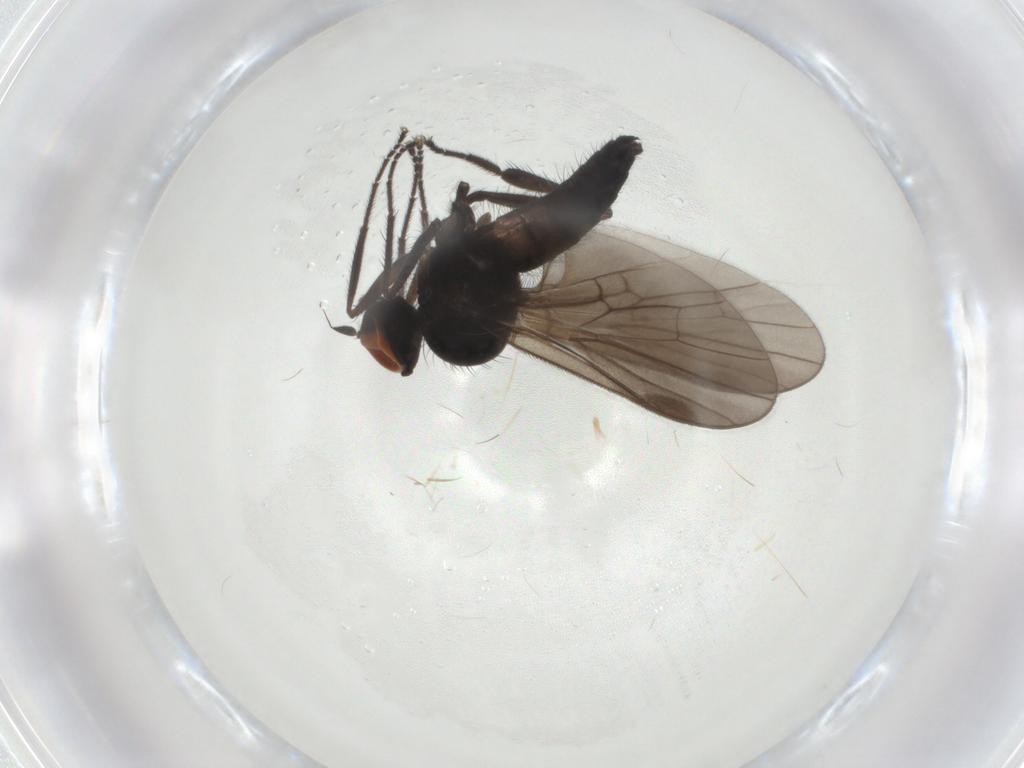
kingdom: Animalia
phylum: Arthropoda
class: Insecta
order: Diptera
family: Hybotidae
